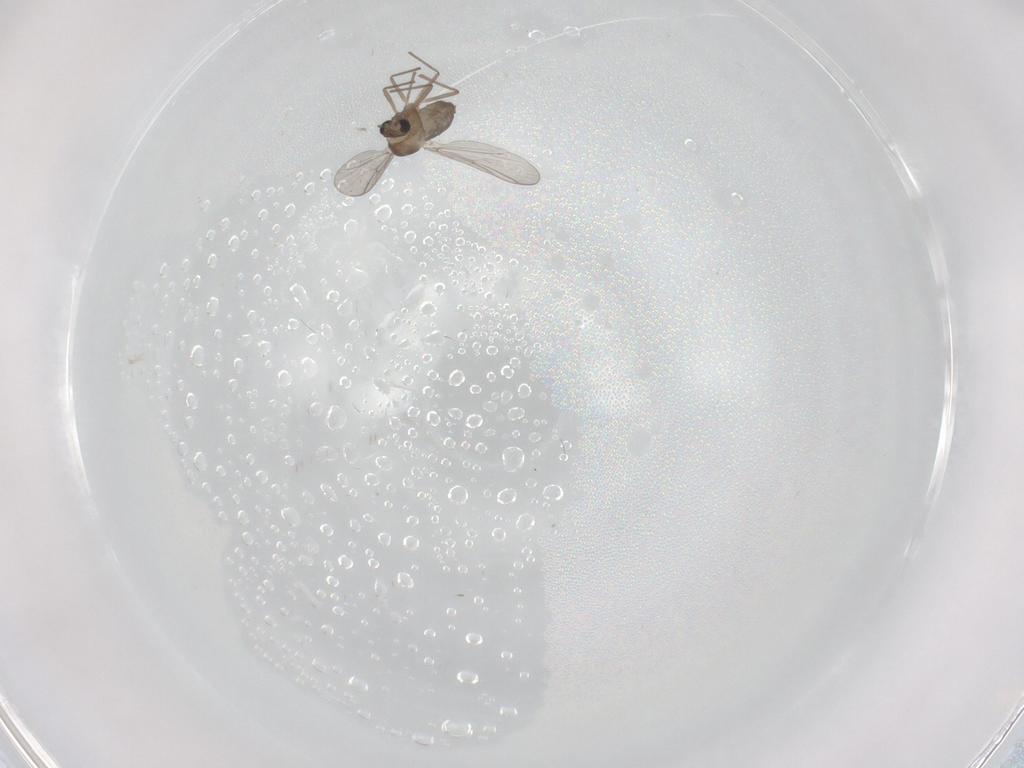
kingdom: Animalia
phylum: Arthropoda
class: Insecta
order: Diptera
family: Chironomidae
